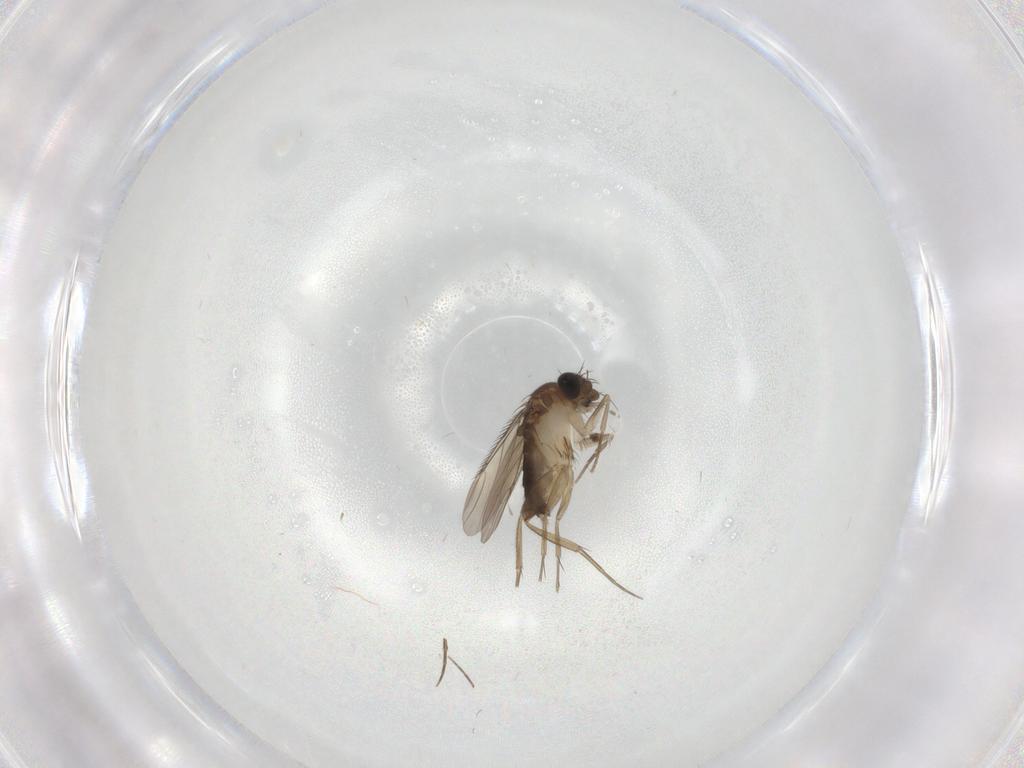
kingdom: Animalia
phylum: Arthropoda
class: Insecta
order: Diptera
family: Phoridae
